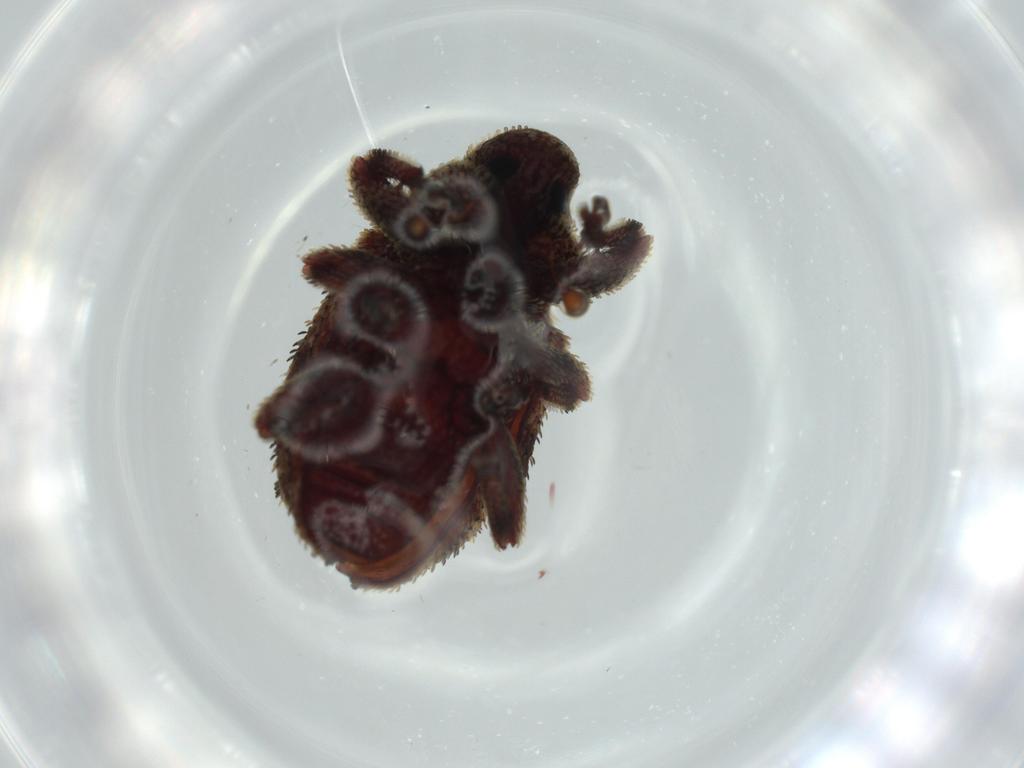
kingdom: Animalia
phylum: Arthropoda
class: Insecta
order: Coleoptera
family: Curculionidae
